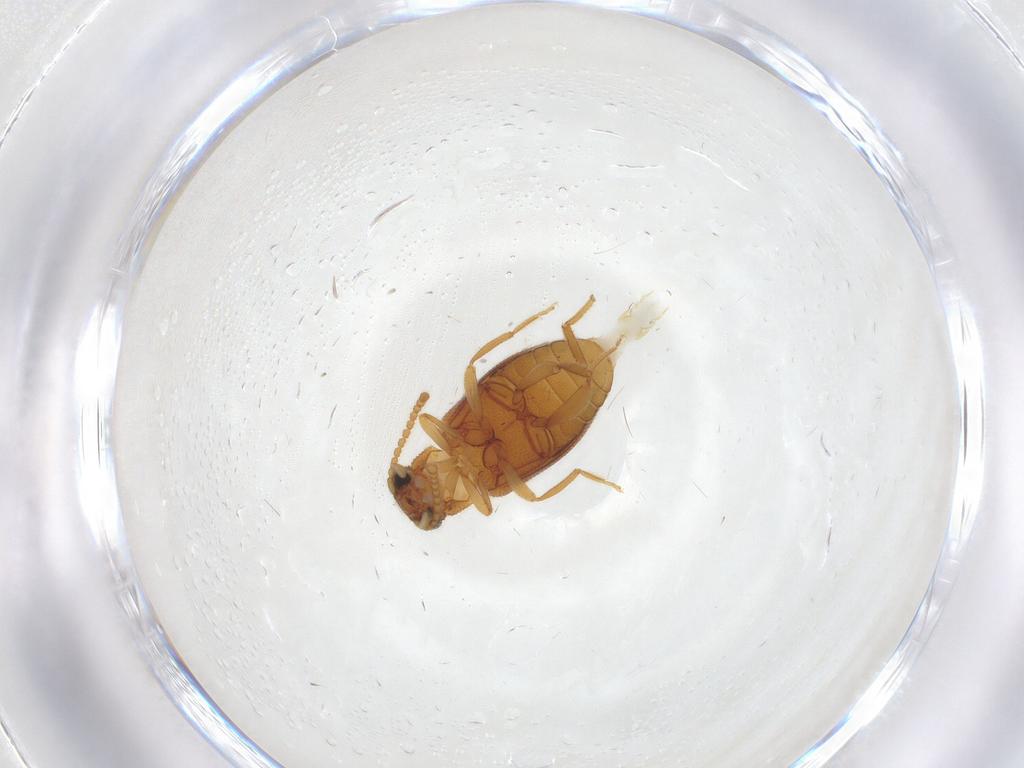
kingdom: Animalia
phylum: Arthropoda
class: Insecta
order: Coleoptera
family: Aderidae
